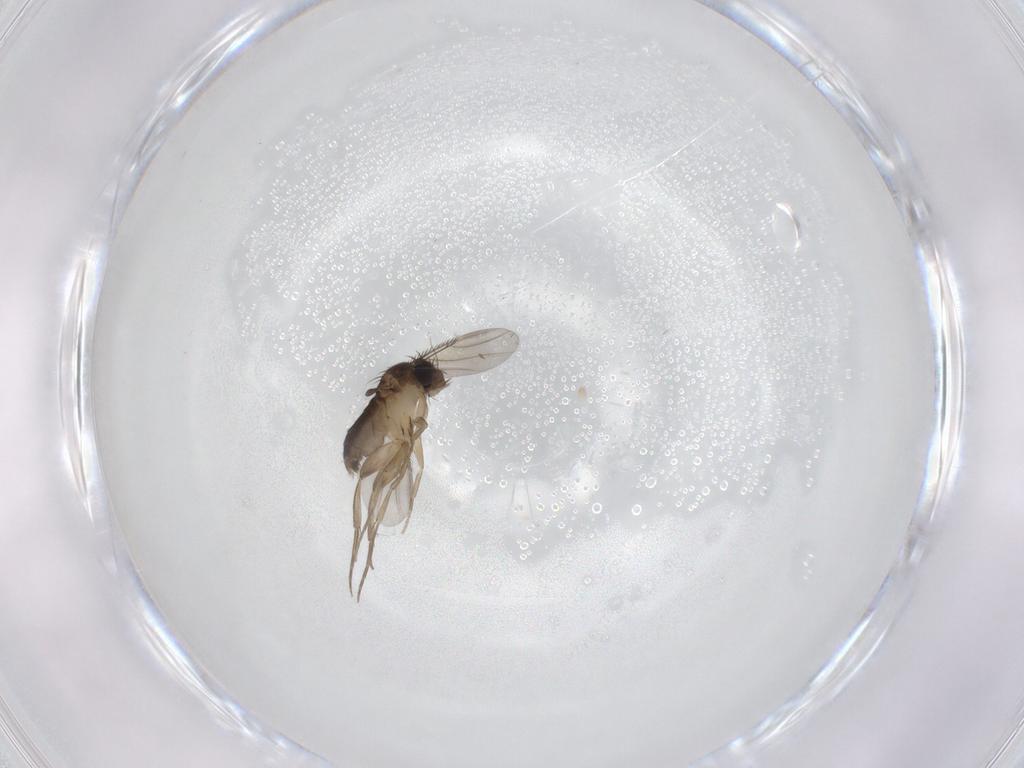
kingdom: Animalia
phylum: Arthropoda
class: Insecta
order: Diptera
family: Phoridae
